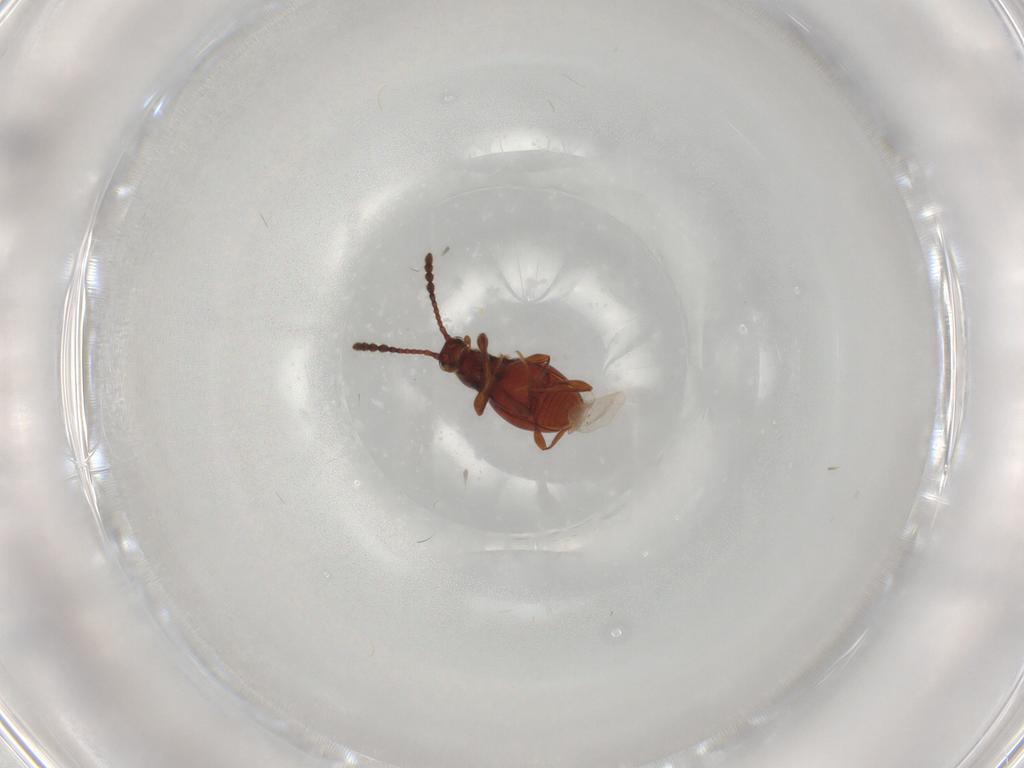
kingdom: Animalia
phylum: Arthropoda
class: Insecta
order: Coleoptera
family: Staphylinidae
